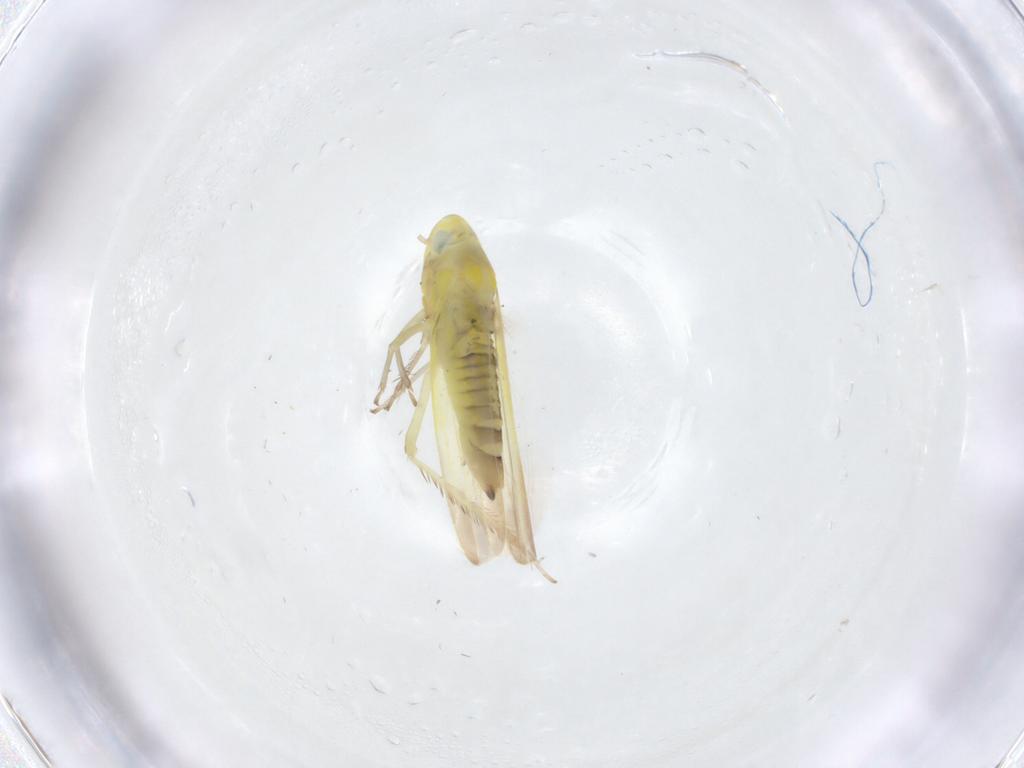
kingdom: Animalia
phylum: Arthropoda
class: Insecta
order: Hemiptera
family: Cicadellidae
